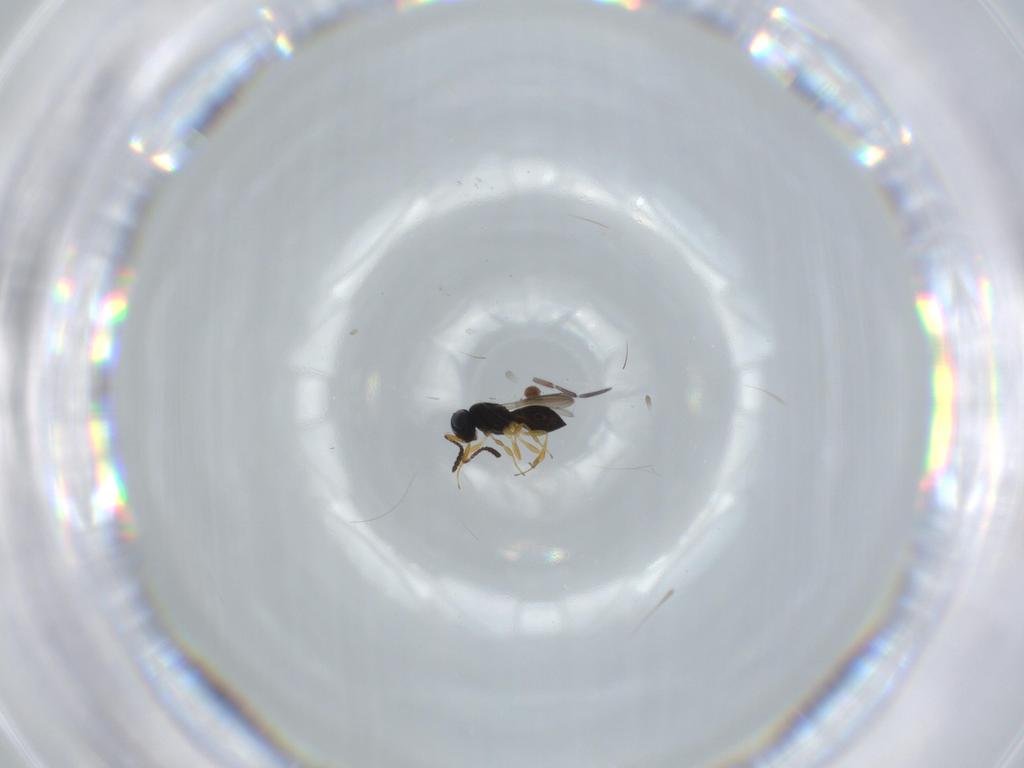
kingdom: Animalia
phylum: Arthropoda
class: Insecta
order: Hymenoptera
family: Scelionidae
